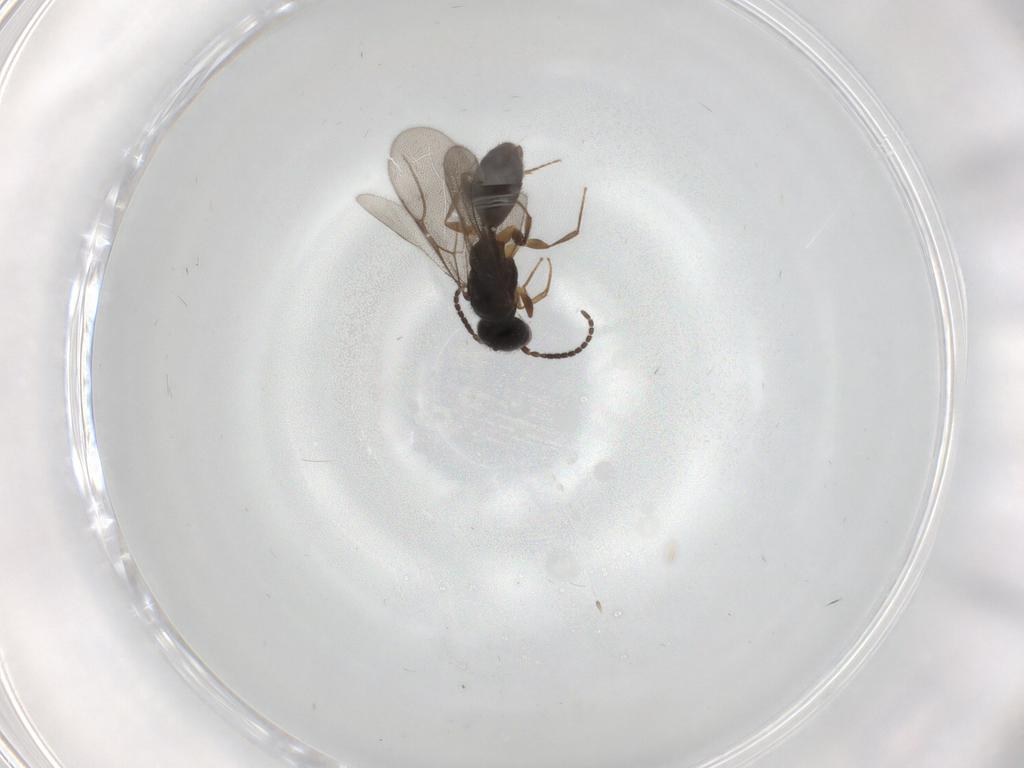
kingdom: Animalia
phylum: Arthropoda
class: Insecta
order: Hymenoptera
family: Bethylidae
